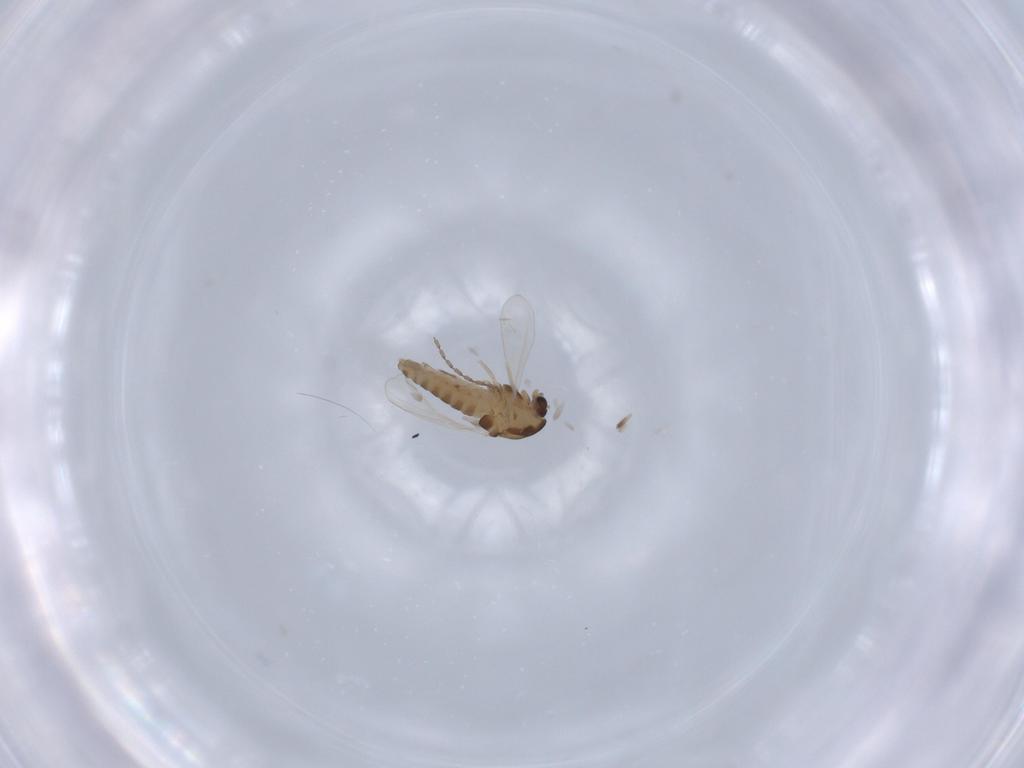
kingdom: Animalia
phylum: Arthropoda
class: Insecta
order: Diptera
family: Chironomidae
